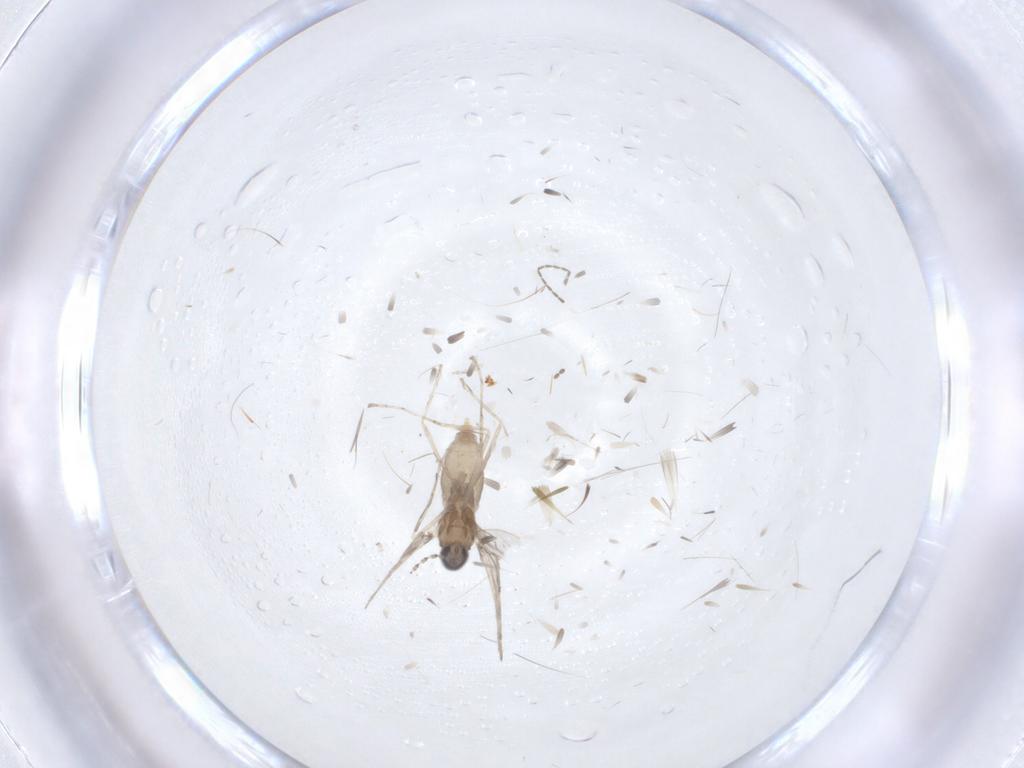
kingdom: Animalia
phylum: Arthropoda
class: Insecta
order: Diptera
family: Cecidomyiidae
